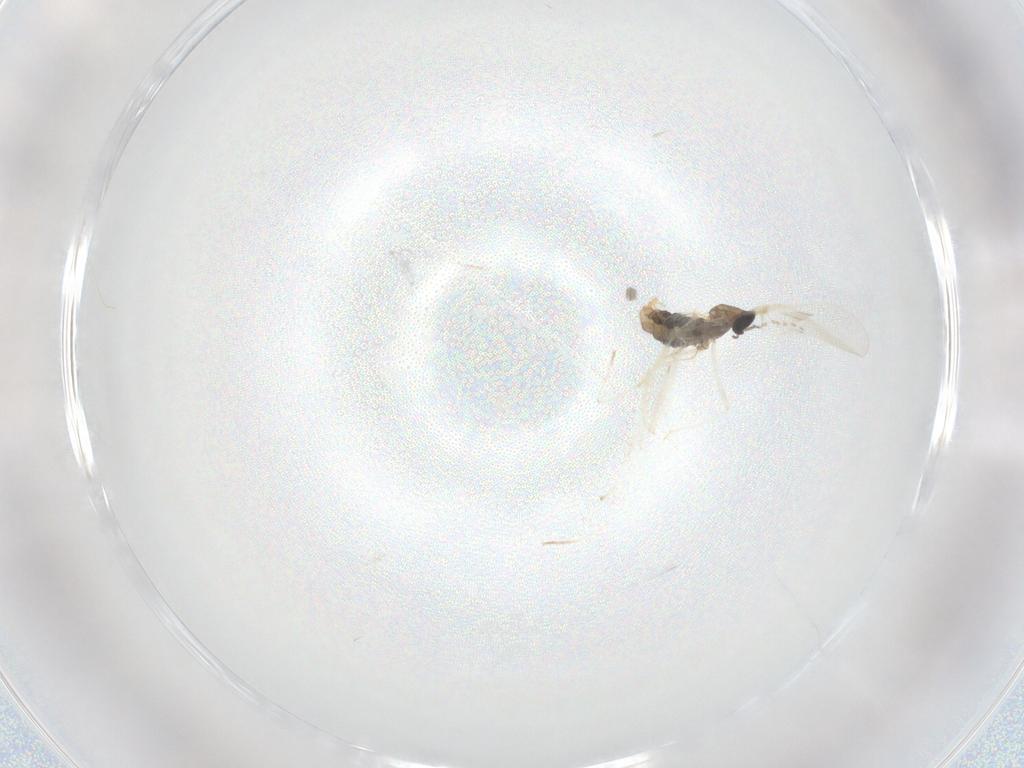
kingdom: Animalia
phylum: Arthropoda
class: Insecta
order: Diptera
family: Cecidomyiidae
